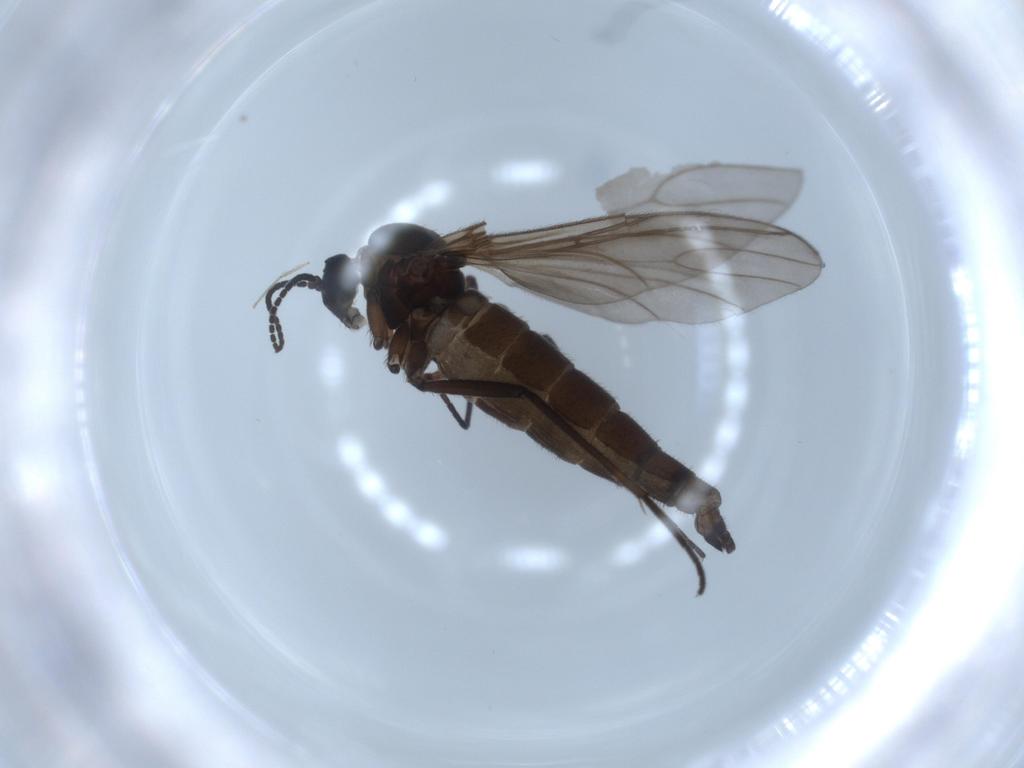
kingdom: Animalia
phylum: Arthropoda
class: Insecta
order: Diptera
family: Sciaridae
